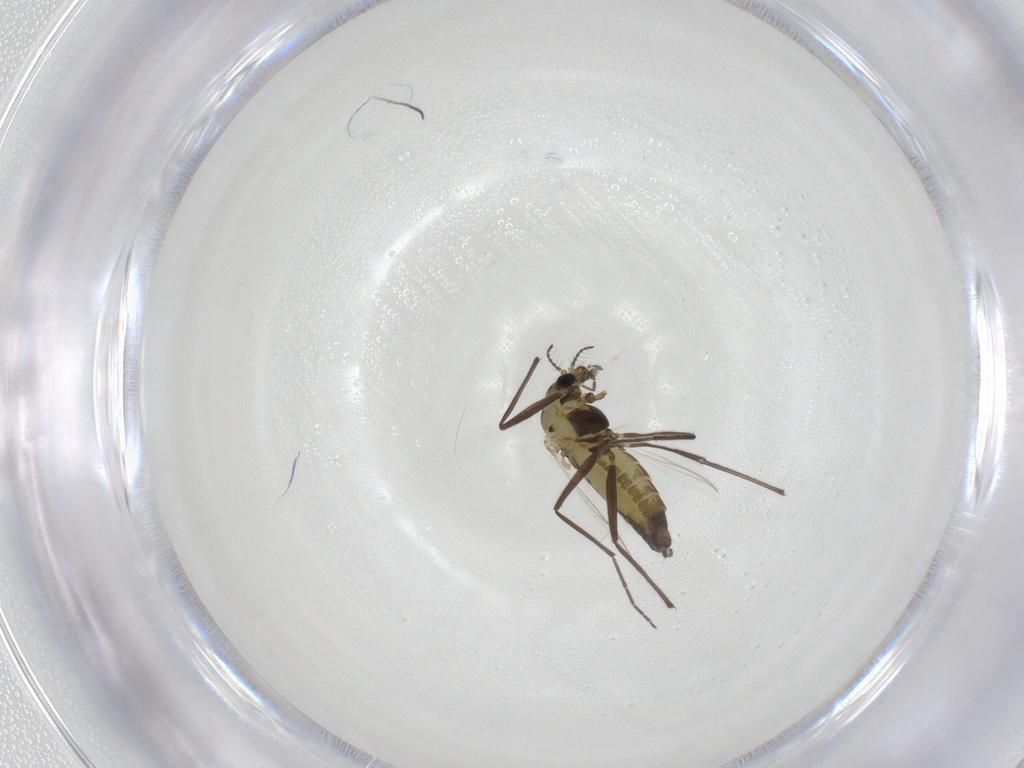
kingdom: Animalia
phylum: Arthropoda
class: Insecta
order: Diptera
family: Chironomidae
